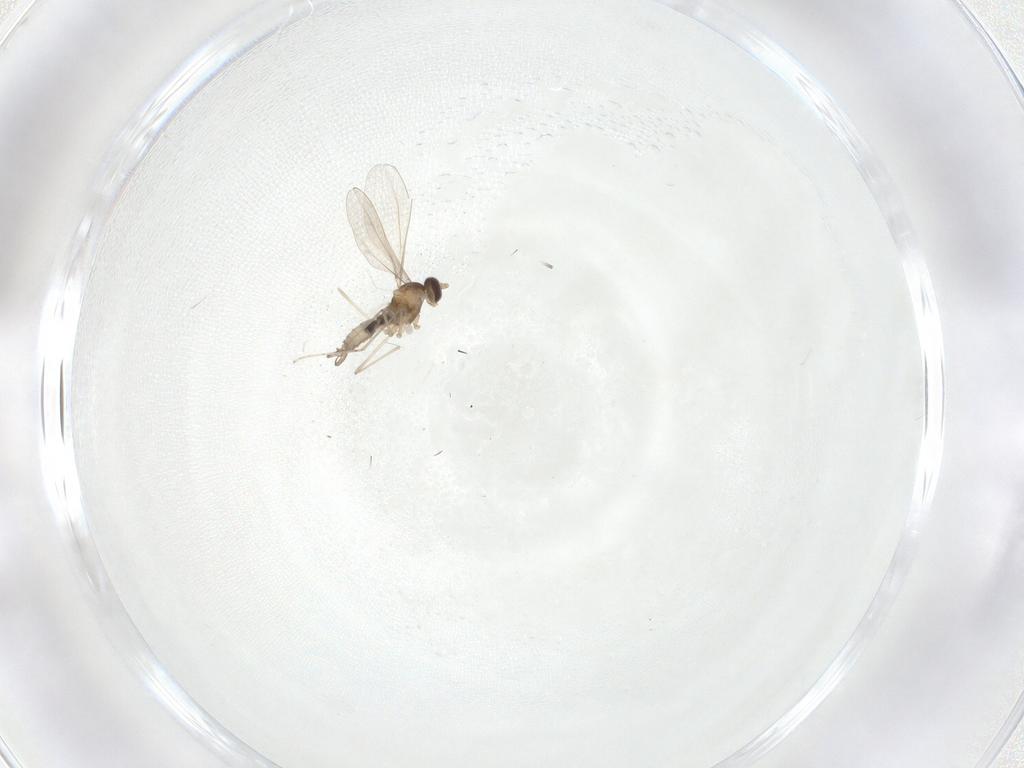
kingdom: Animalia
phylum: Arthropoda
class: Insecta
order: Diptera
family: Cecidomyiidae
